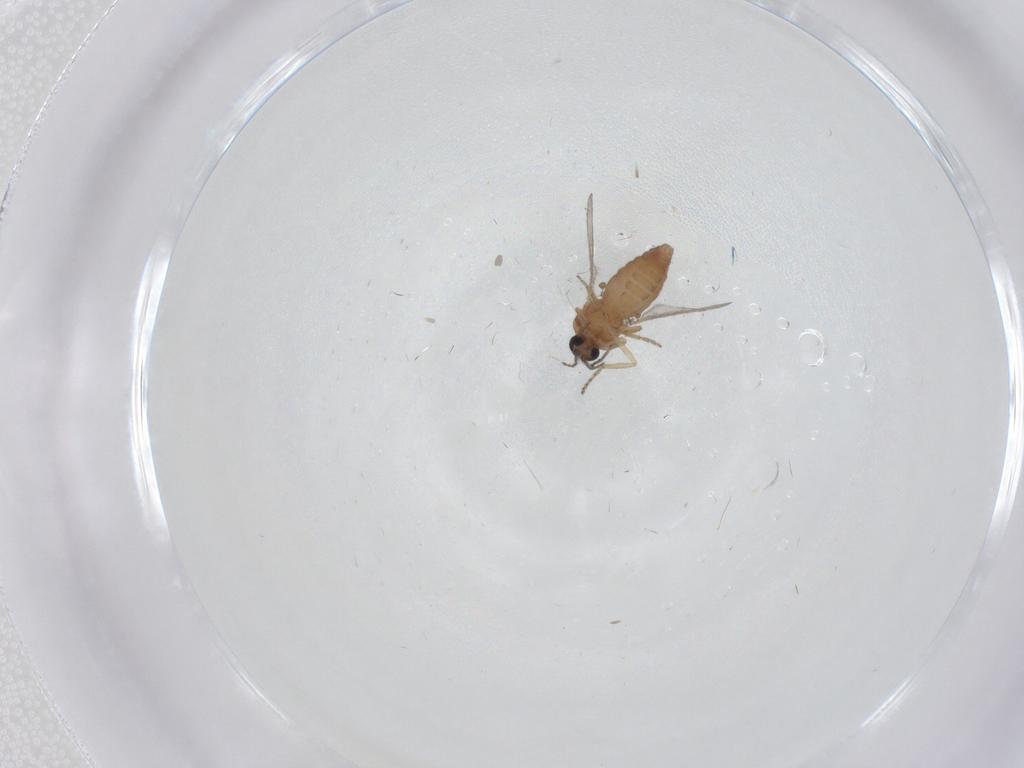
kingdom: Animalia
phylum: Arthropoda
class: Insecta
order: Diptera
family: Ceratopogonidae
